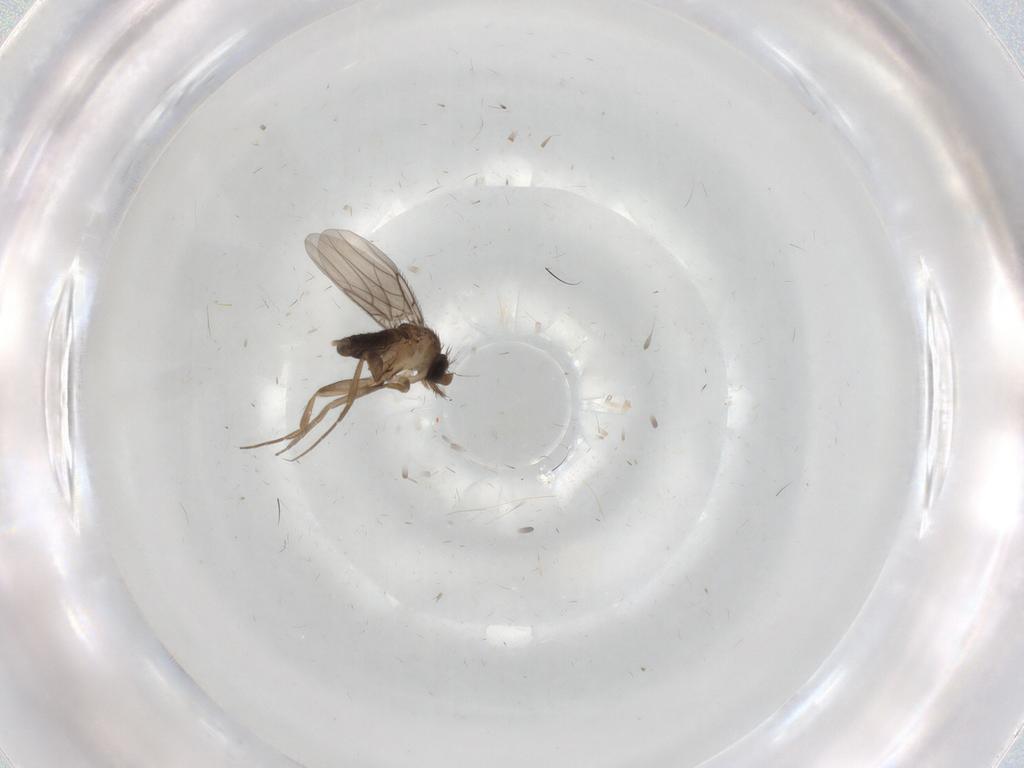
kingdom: Animalia
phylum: Arthropoda
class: Insecta
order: Diptera
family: Phoridae
